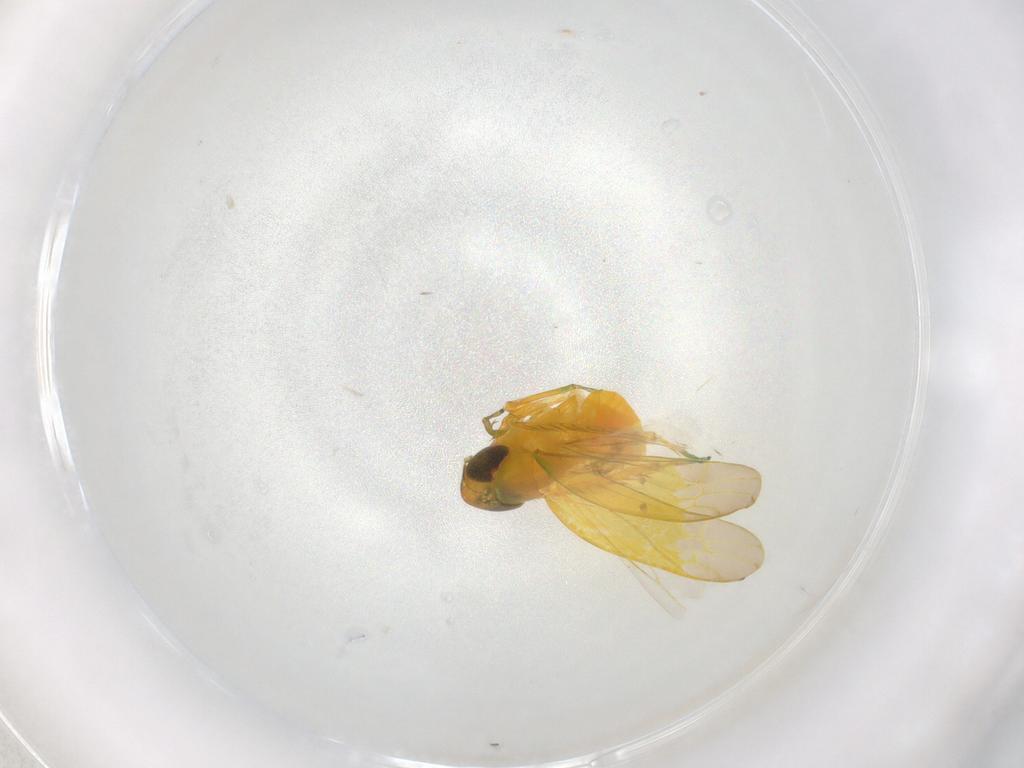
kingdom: Animalia
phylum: Arthropoda
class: Insecta
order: Hemiptera
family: Cicadellidae
